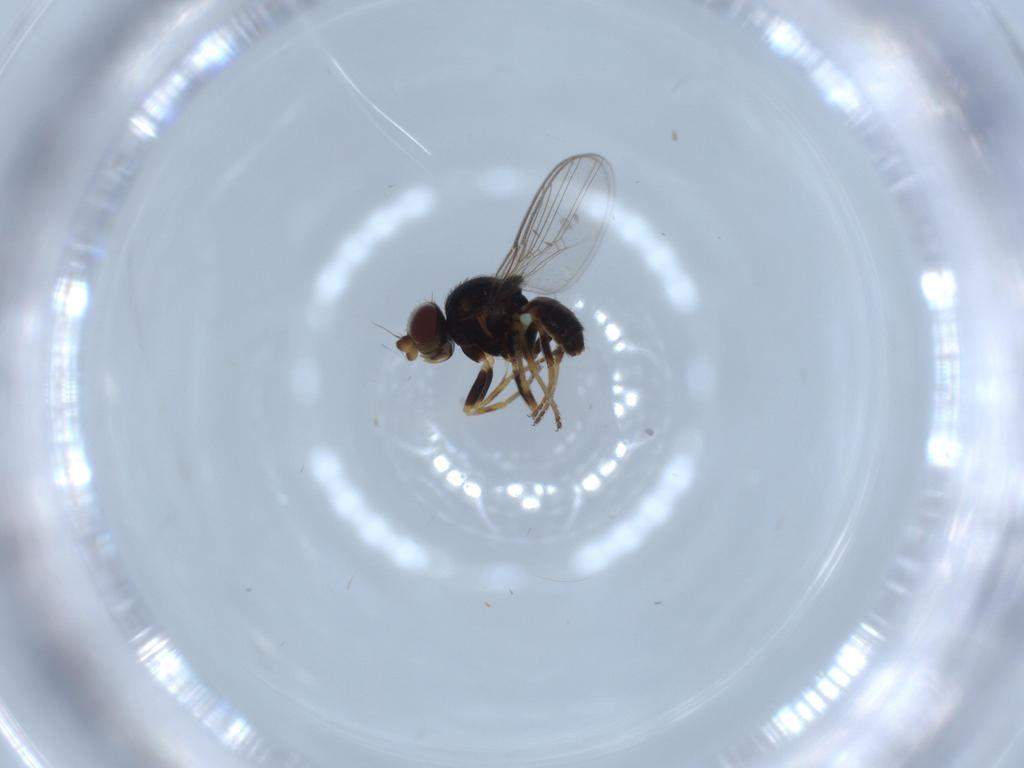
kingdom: Animalia
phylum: Arthropoda
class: Insecta
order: Diptera
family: Chloropidae
